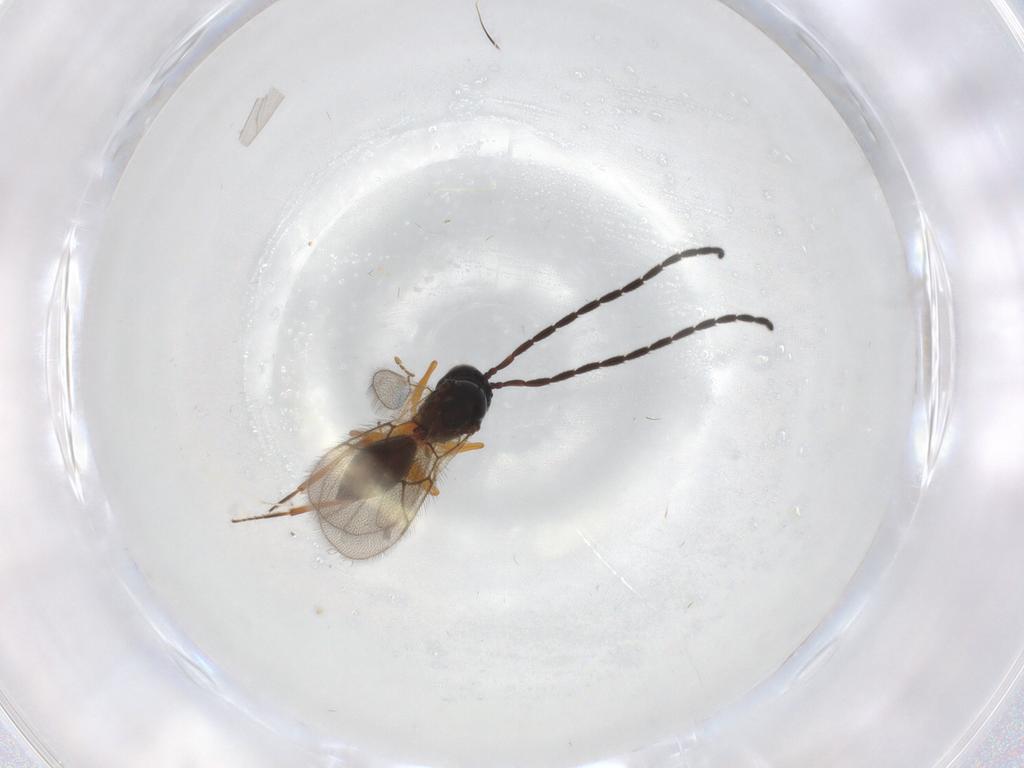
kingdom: Animalia
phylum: Arthropoda
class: Insecta
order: Hymenoptera
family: Figitidae
